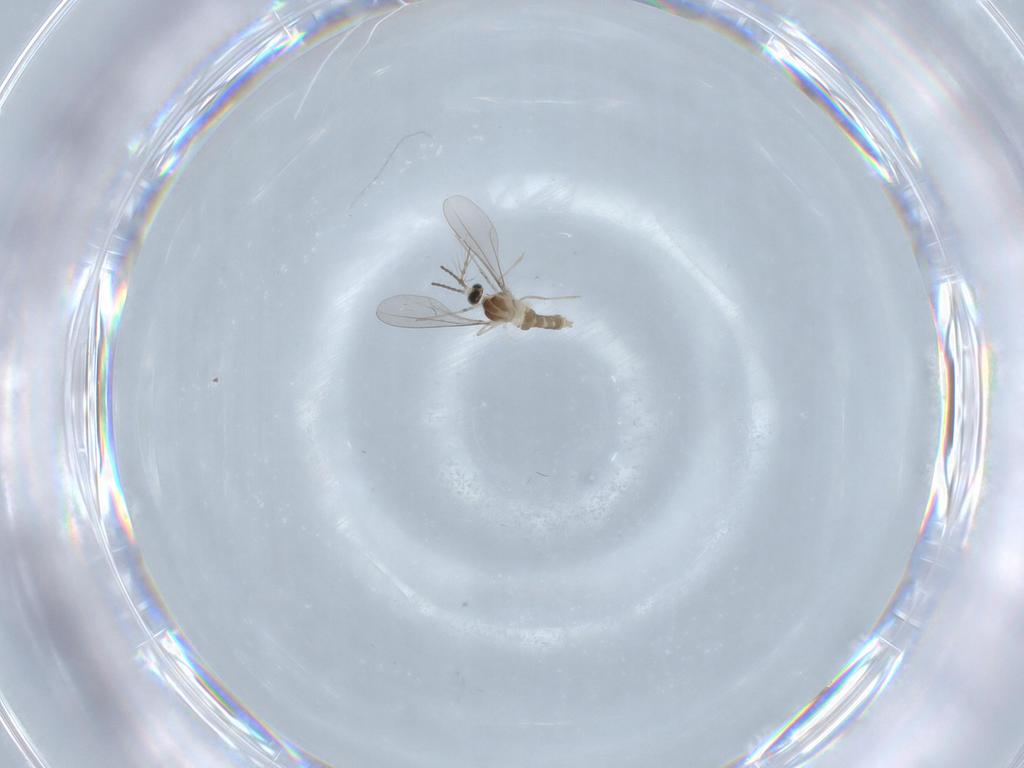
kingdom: Animalia
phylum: Arthropoda
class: Insecta
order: Diptera
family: Cecidomyiidae
